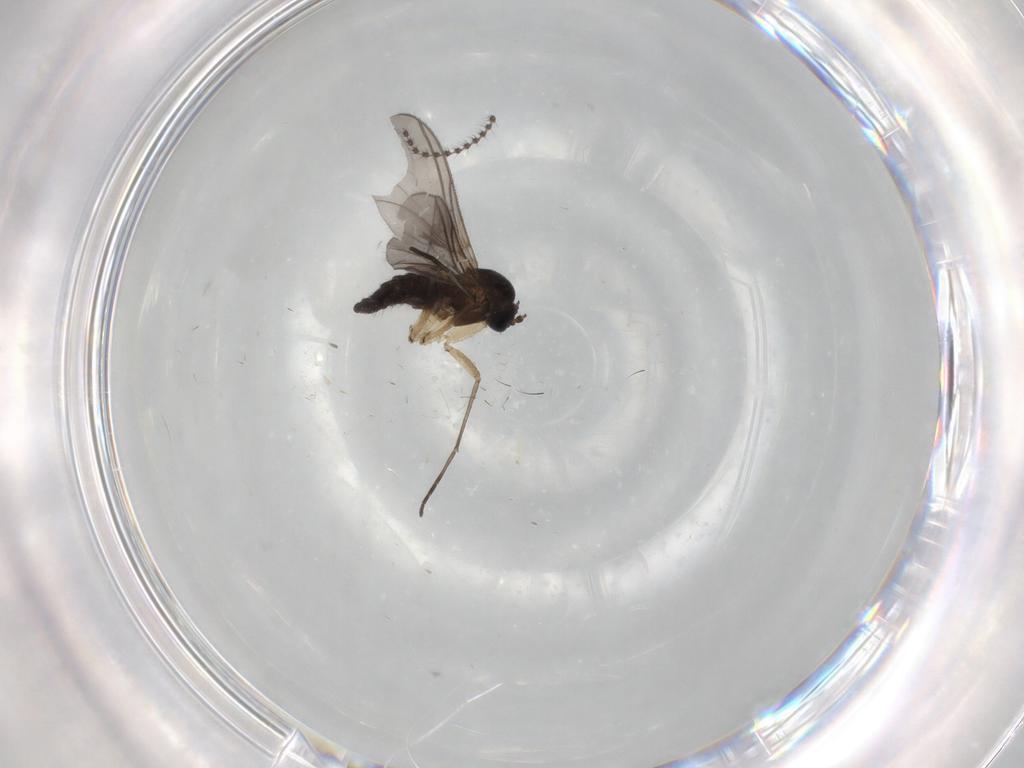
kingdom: Animalia
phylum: Arthropoda
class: Insecta
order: Diptera
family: Sciaridae
